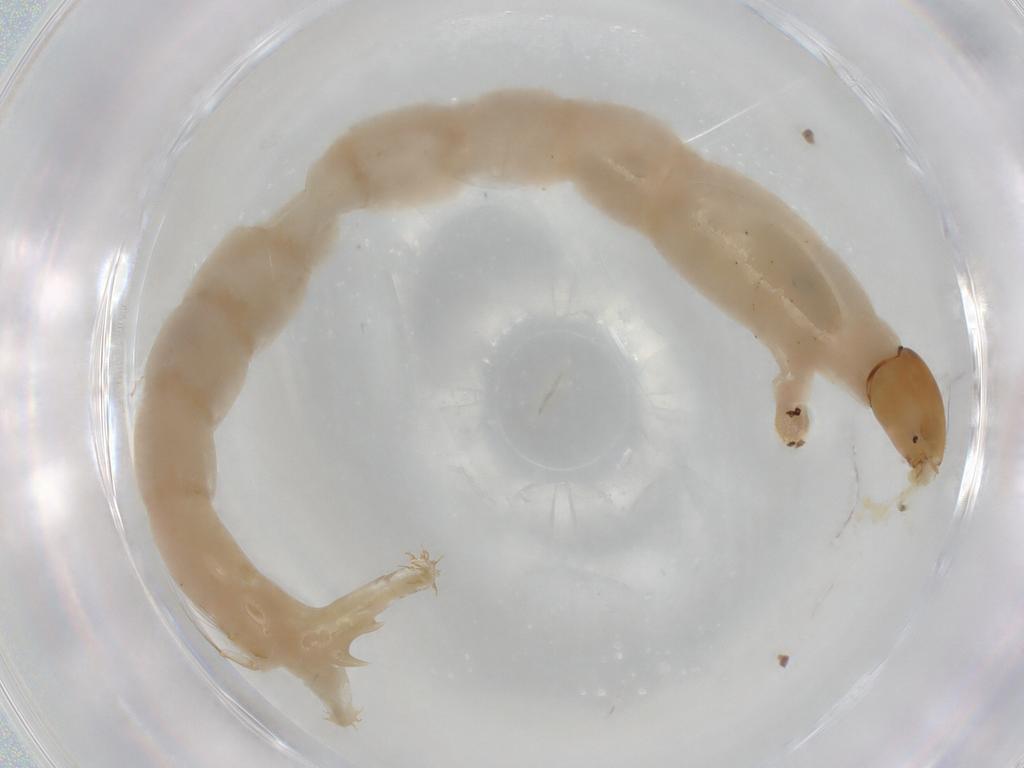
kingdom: Animalia
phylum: Arthropoda
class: Insecta
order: Diptera
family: Chironomidae
